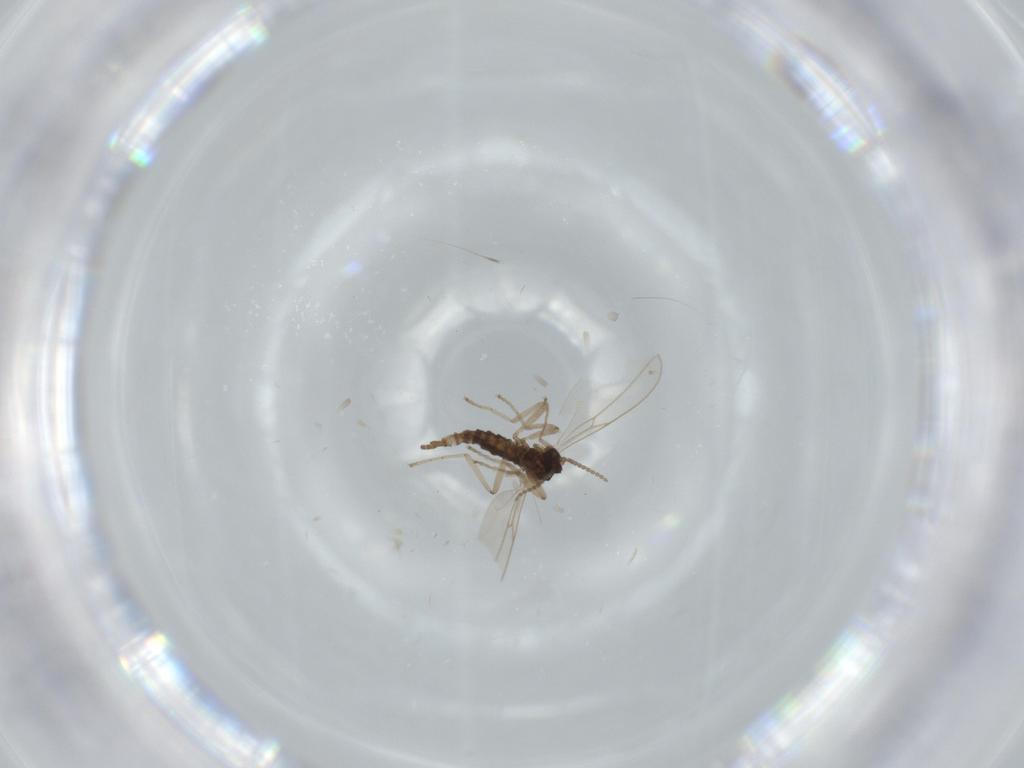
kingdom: Animalia
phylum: Arthropoda
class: Insecta
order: Diptera
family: Cecidomyiidae
